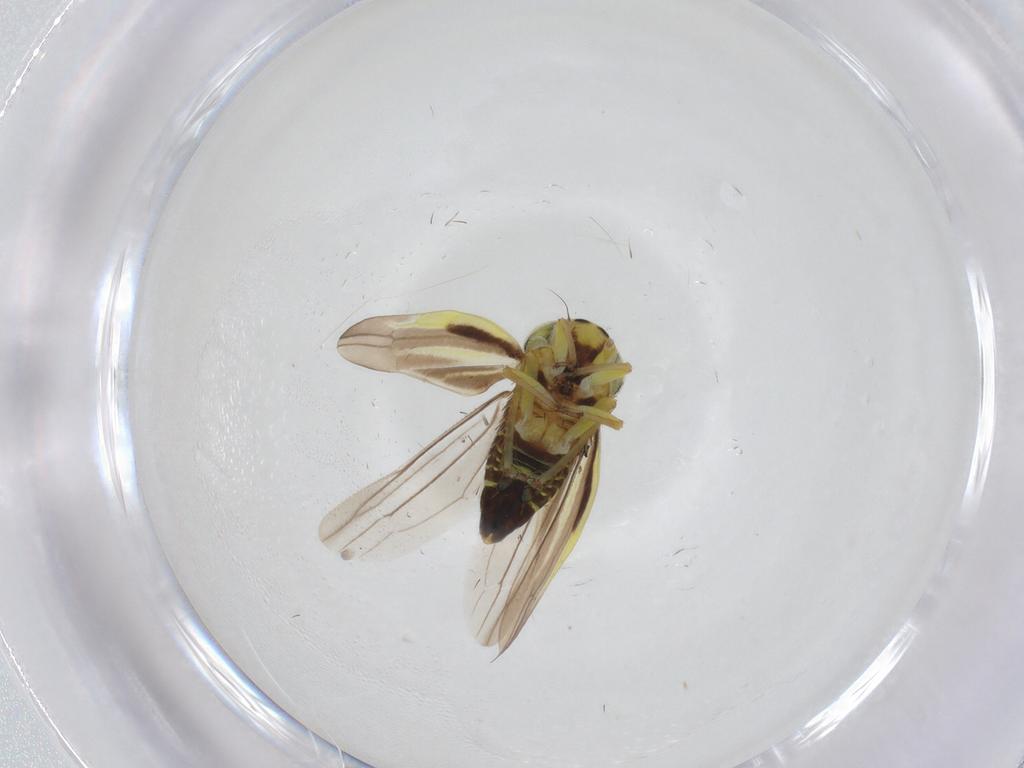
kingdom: Animalia
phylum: Arthropoda
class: Insecta
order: Hemiptera
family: Cicadellidae
